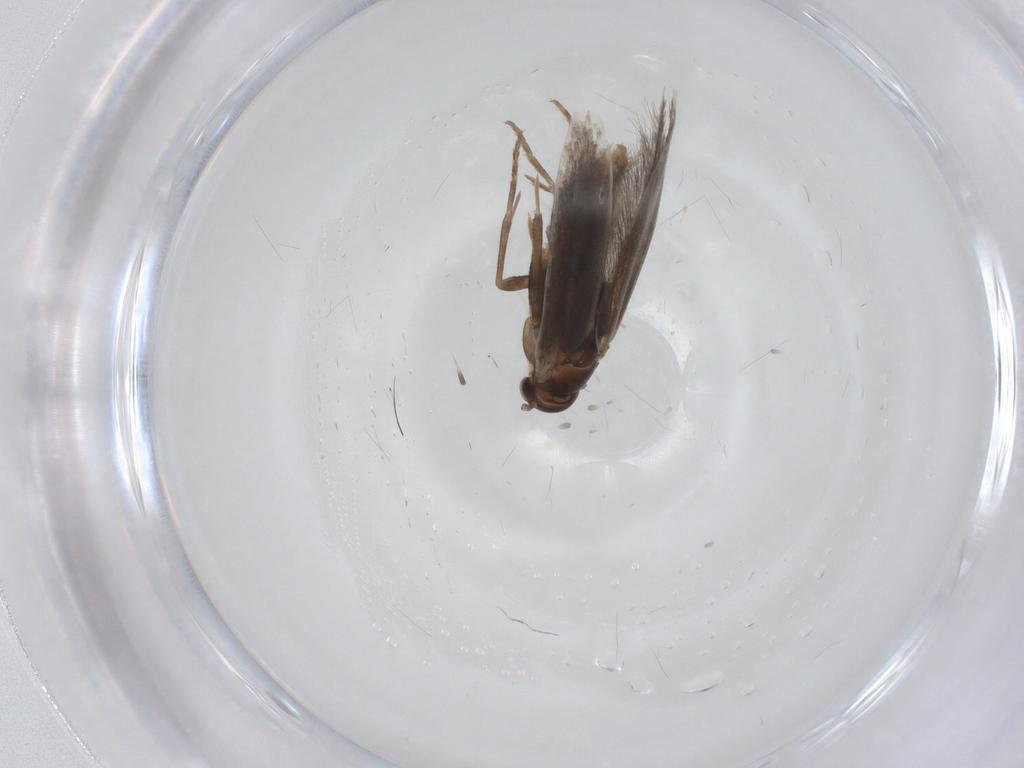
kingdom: Animalia
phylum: Arthropoda
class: Insecta
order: Lepidoptera
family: Elachistidae
